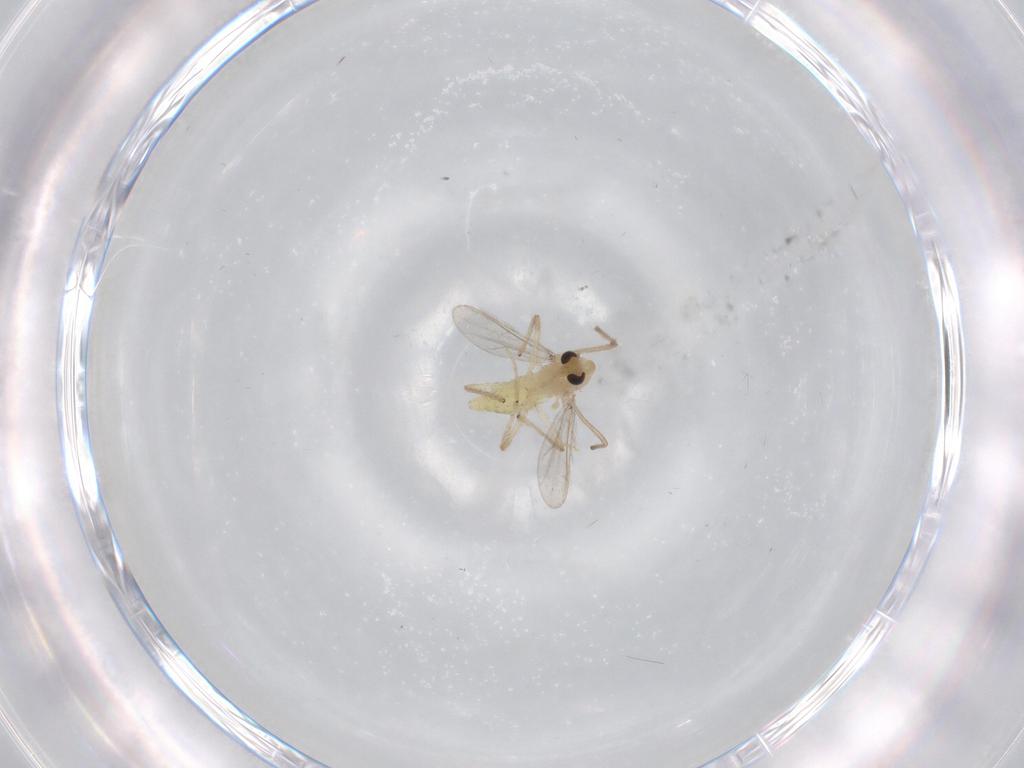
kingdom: Animalia
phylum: Arthropoda
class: Insecta
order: Diptera
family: Chironomidae
